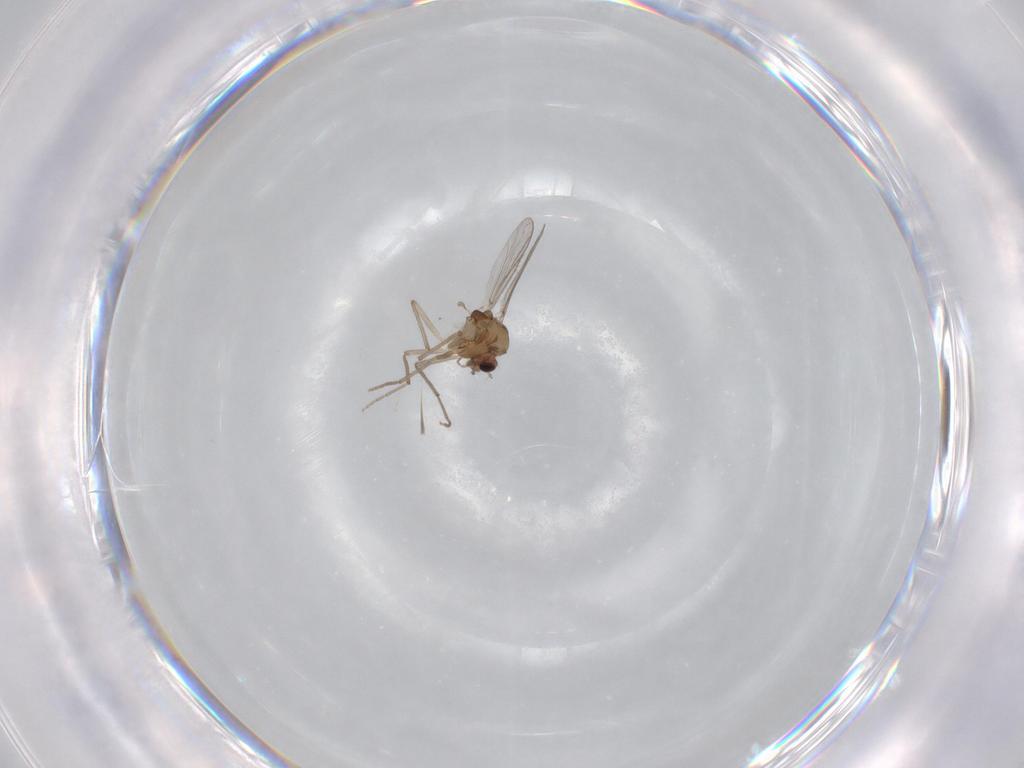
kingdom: Animalia
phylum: Arthropoda
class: Insecta
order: Diptera
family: Chironomidae
